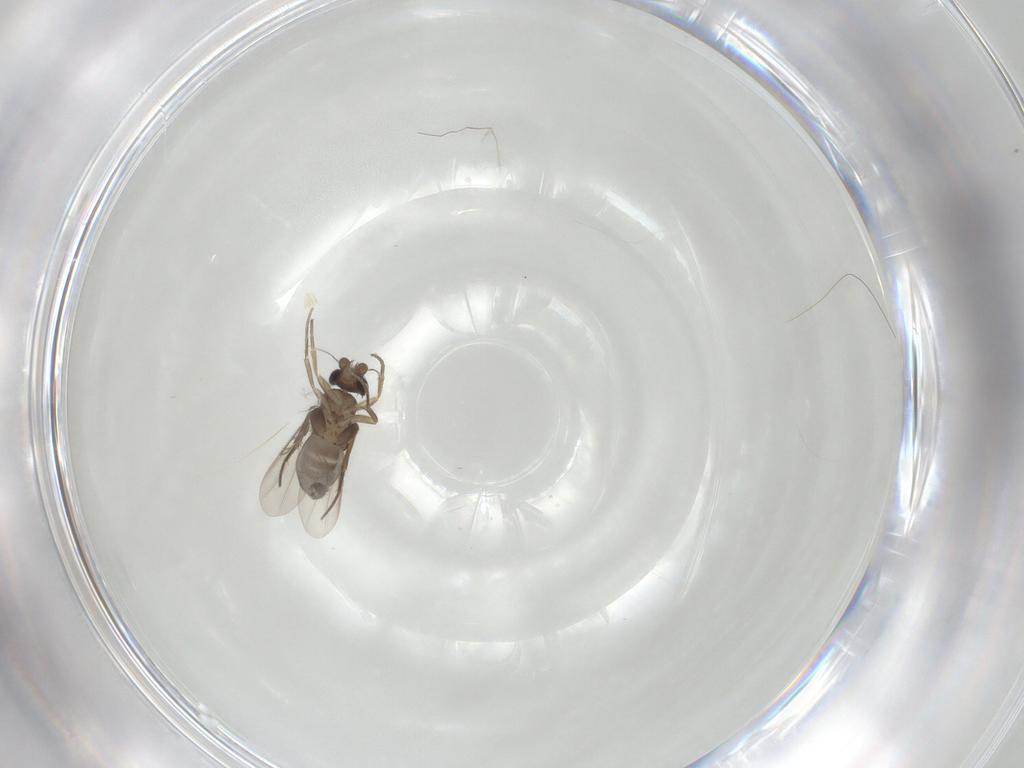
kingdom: Animalia
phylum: Arthropoda
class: Insecta
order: Diptera
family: Phoridae
